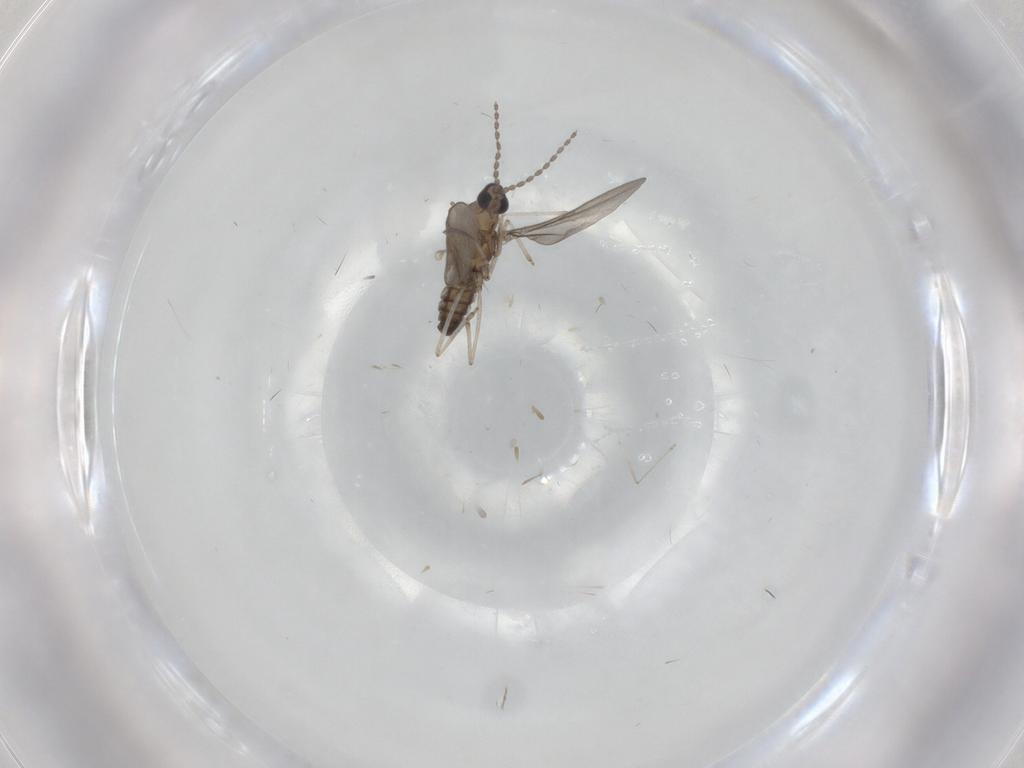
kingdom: Animalia
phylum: Arthropoda
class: Insecta
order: Diptera
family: Cecidomyiidae
